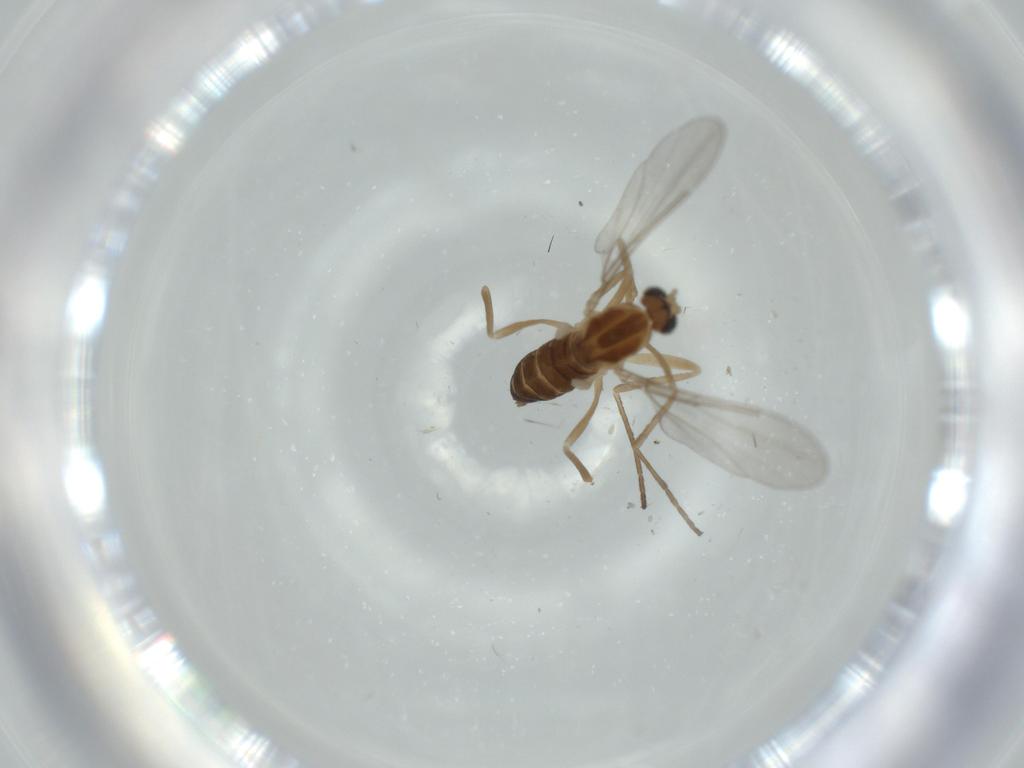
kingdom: Animalia
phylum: Arthropoda
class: Insecta
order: Diptera
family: Cecidomyiidae
